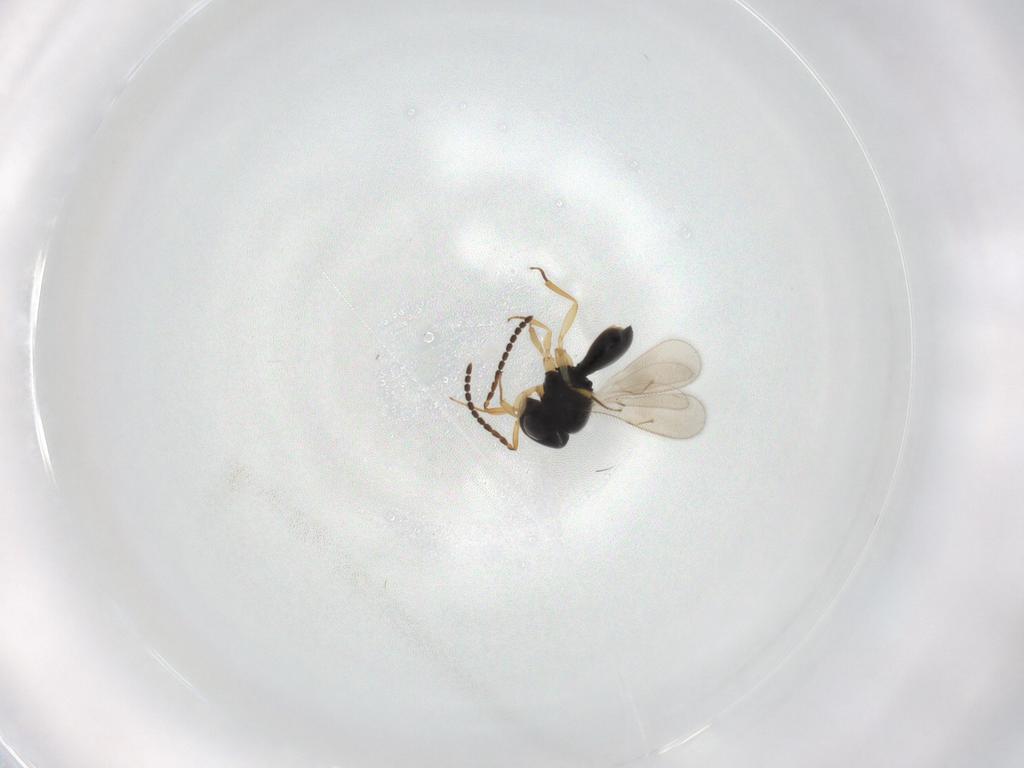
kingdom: Animalia
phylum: Arthropoda
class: Insecta
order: Hymenoptera
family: Scelionidae
